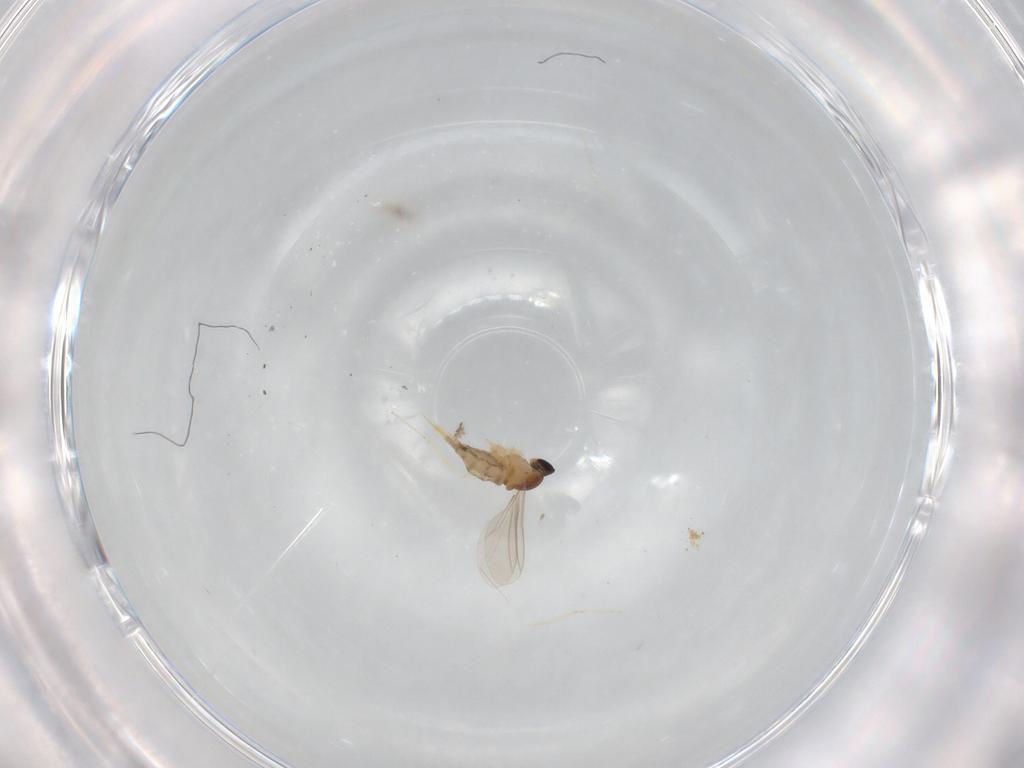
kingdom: Animalia
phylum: Arthropoda
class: Insecta
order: Diptera
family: Cecidomyiidae
